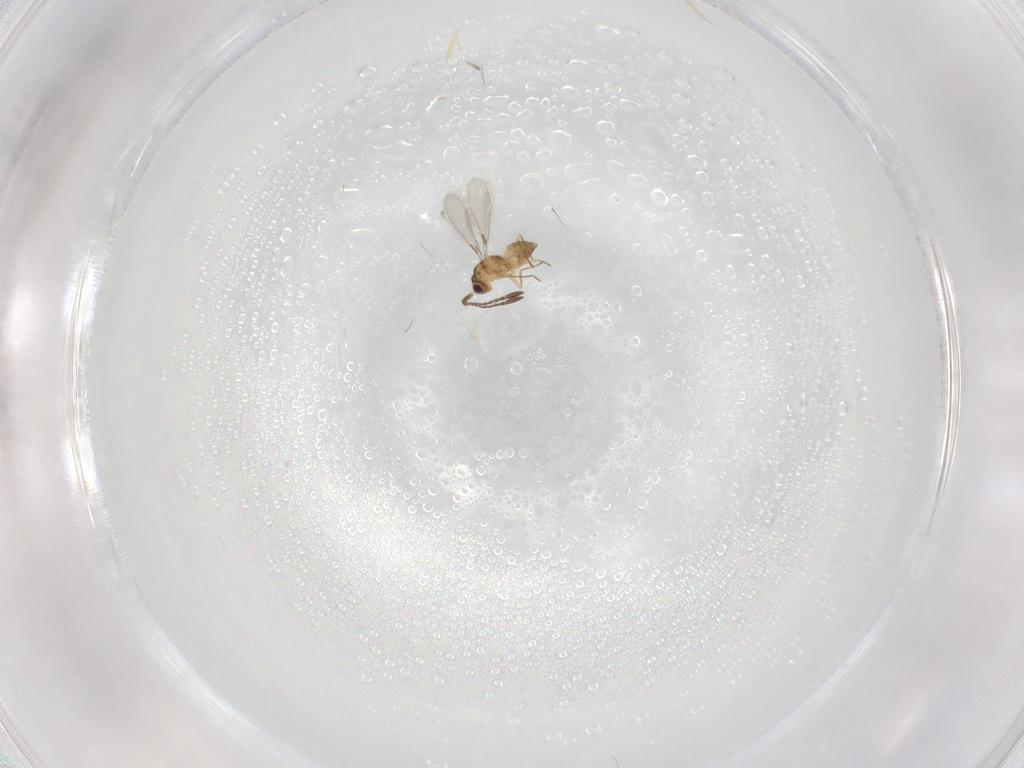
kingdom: Animalia
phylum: Arthropoda
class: Insecta
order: Hymenoptera
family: Mymaridae
